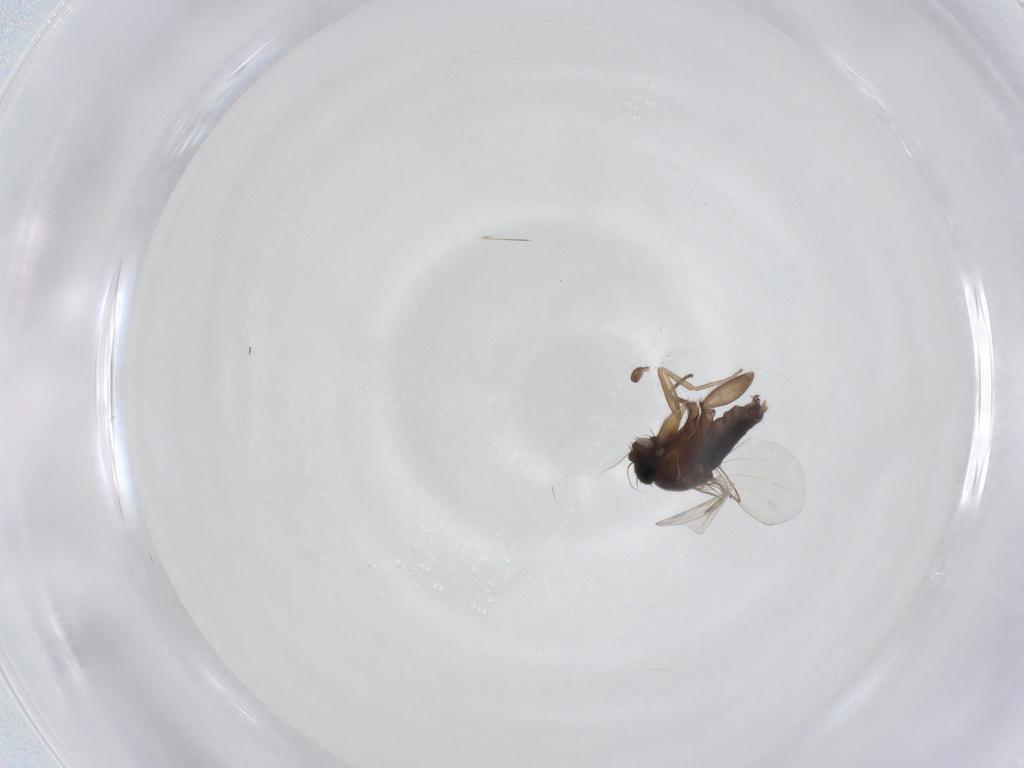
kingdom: Animalia
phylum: Arthropoda
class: Insecta
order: Diptera
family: Phoridae
